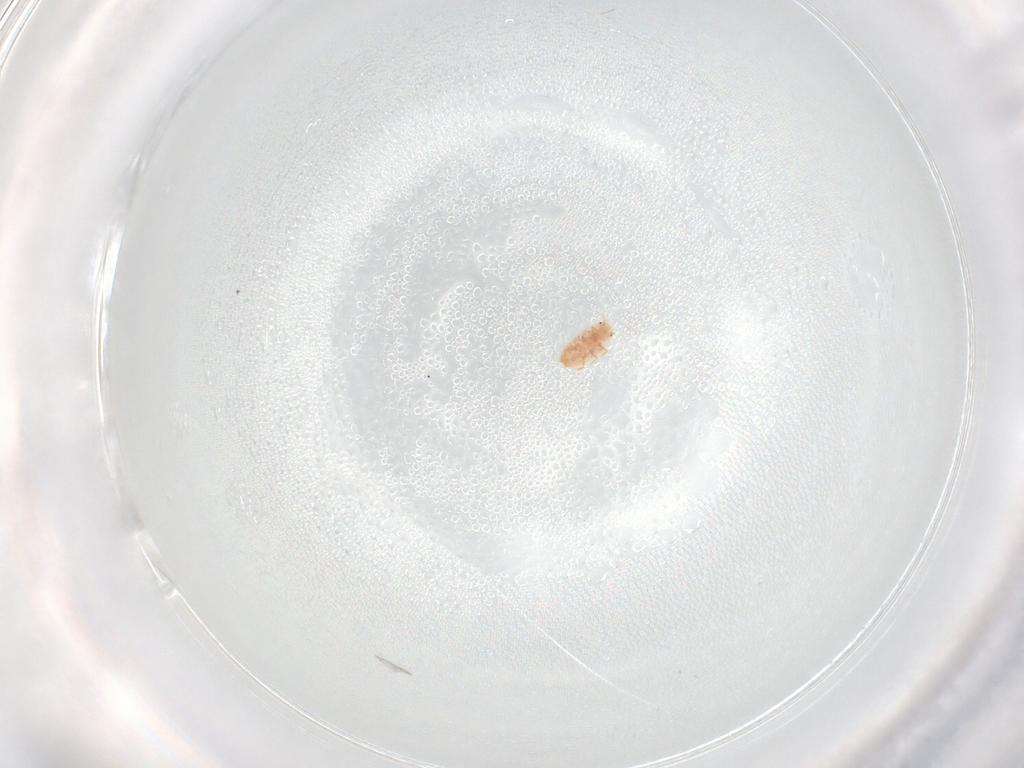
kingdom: Animalia
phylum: Arthropoda
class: Insecta
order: Hemiptera
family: Coccidae
